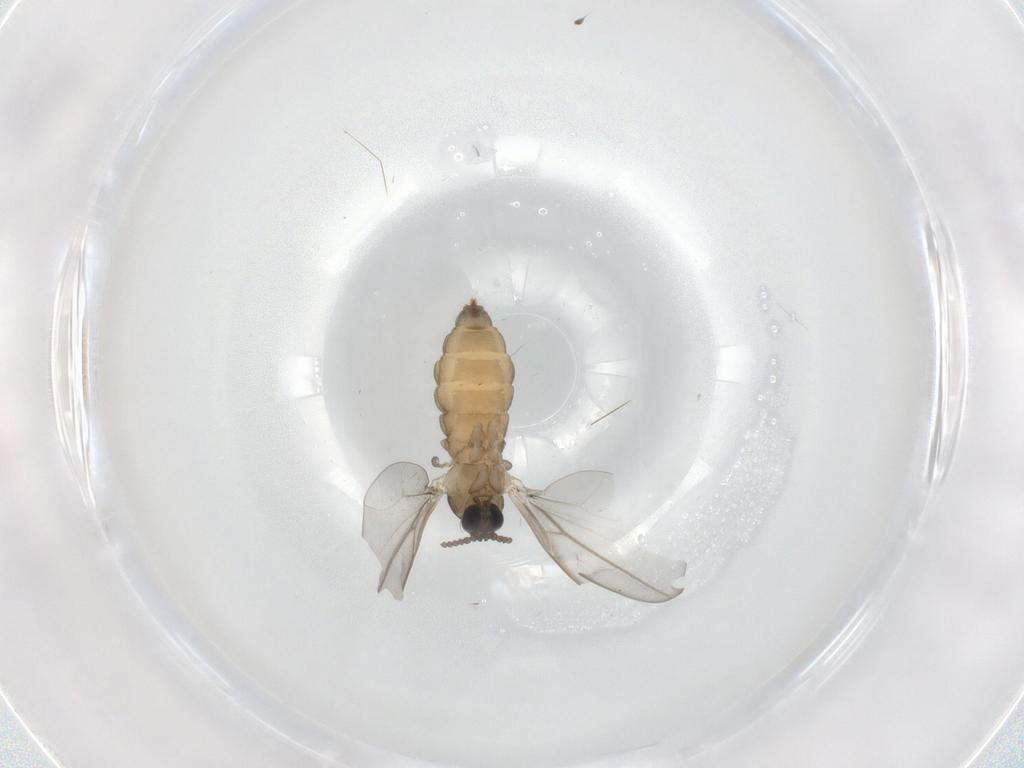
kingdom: Animalia
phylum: Arthropoda
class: Insecta
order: Diptera
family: Cecidomyiidae
